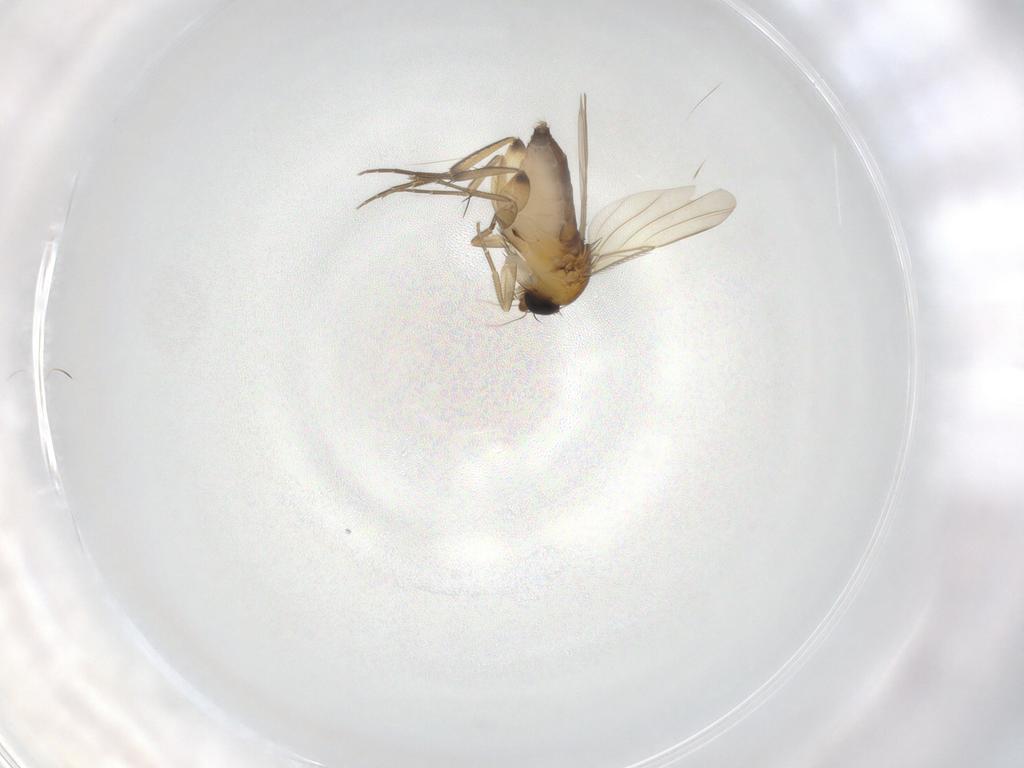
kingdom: Animalia
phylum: Arthropoda
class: Insecta
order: Diptera
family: Phoridae
